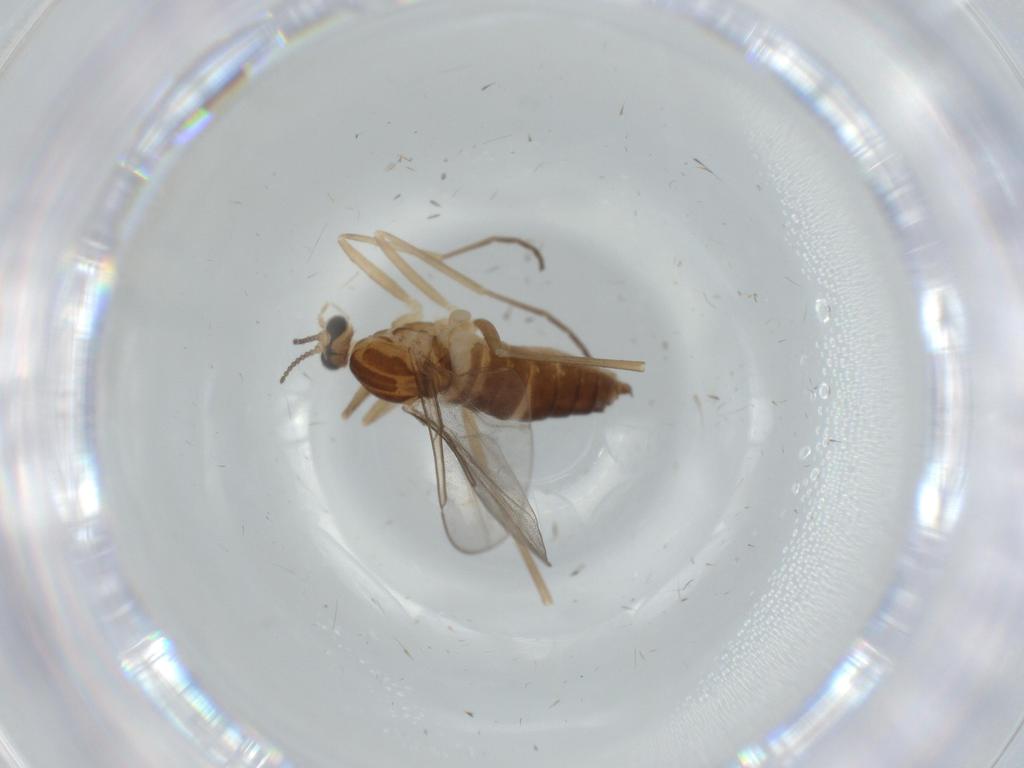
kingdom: Animalia
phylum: Arthropoda
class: Insecta
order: Diptera
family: Cecidomyiidae
